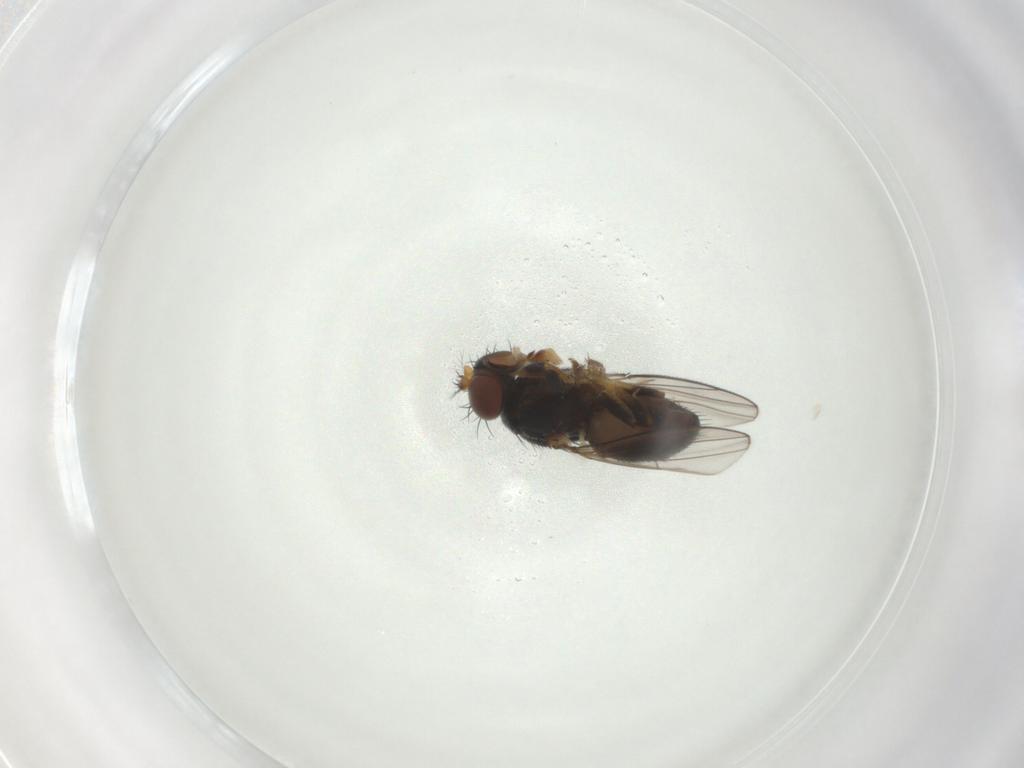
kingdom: Animalia
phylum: Arthropoda
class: Insecta
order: Diptera
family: Ephydridae
